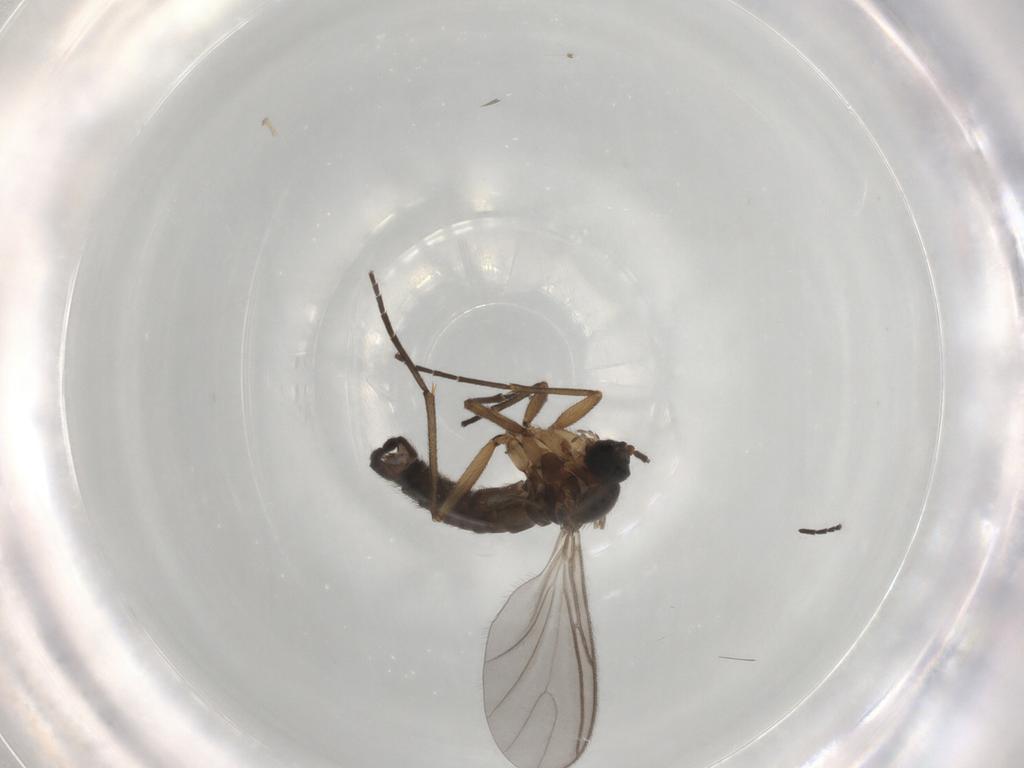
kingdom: Animalia
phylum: Arthropoda
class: Insecta
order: Diptera
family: Sciaridae
